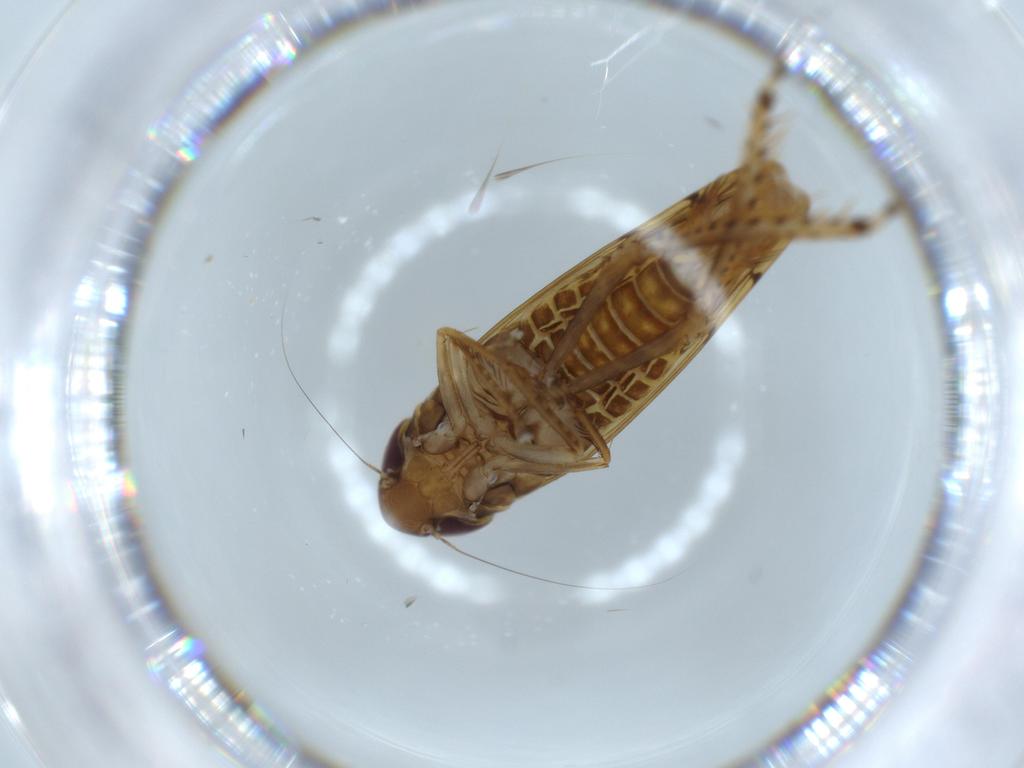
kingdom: Animalia
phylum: Arthropoda
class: Insecta
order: Hemiptera
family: Cicadellidae
